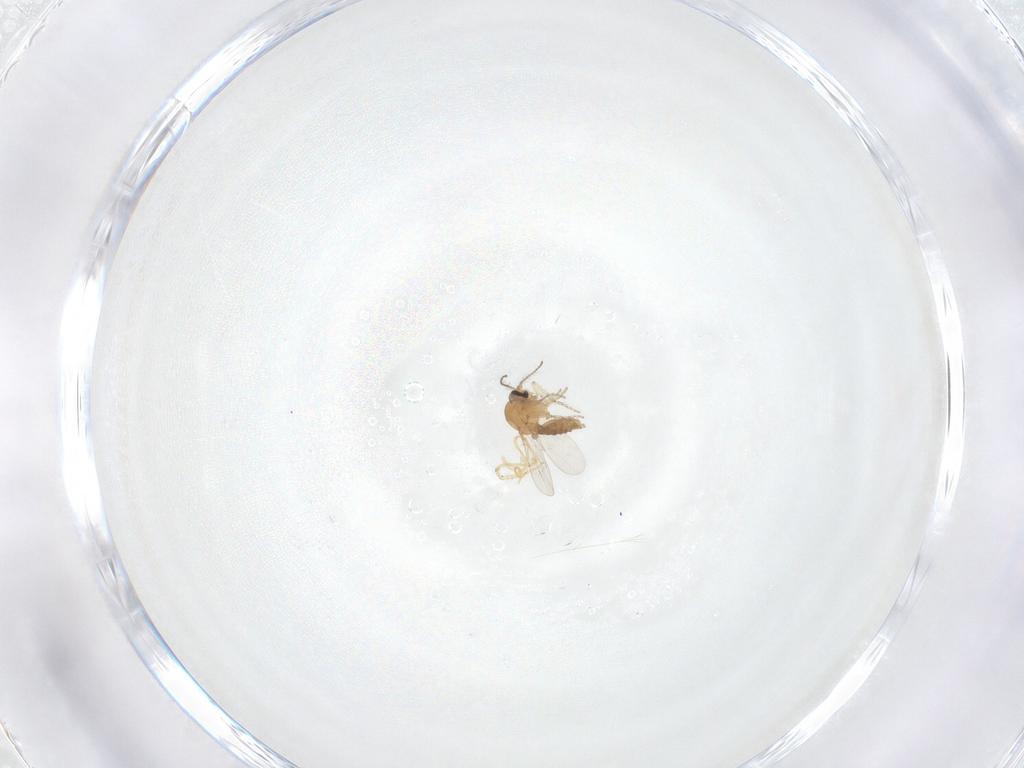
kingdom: Animalia
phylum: Arthropoda
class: Insecta
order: Diptera
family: Ceratopogonidae
